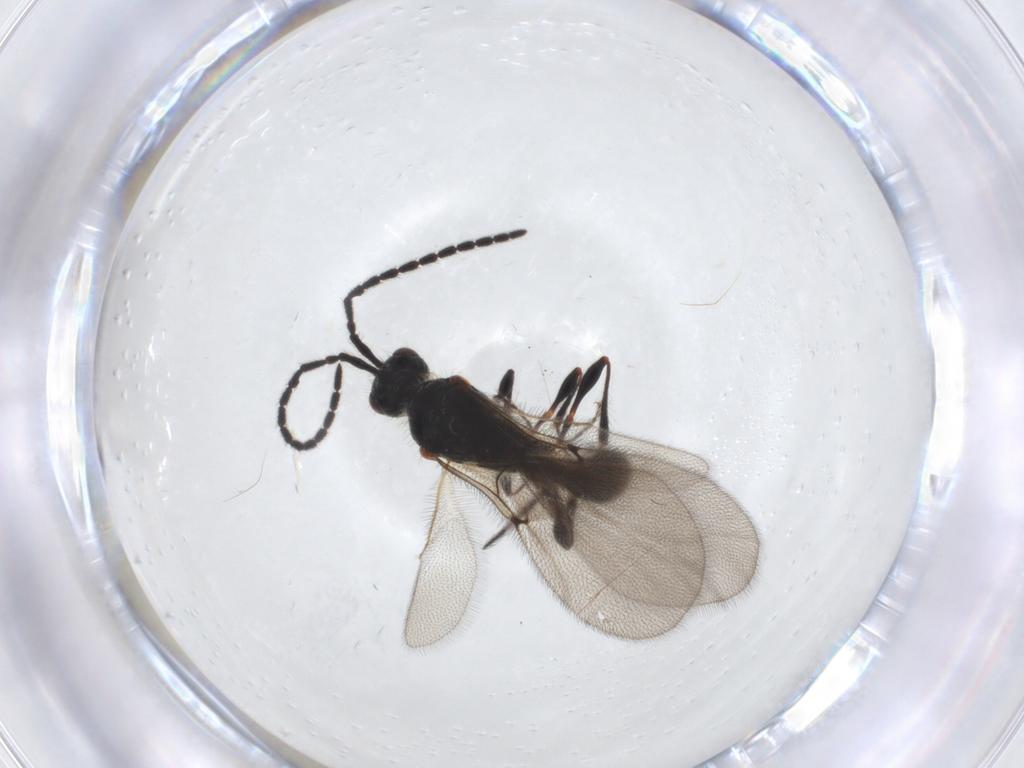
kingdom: Animalia
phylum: Arthropoda
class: Insecta
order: Hymenoptera
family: Diapriidae
